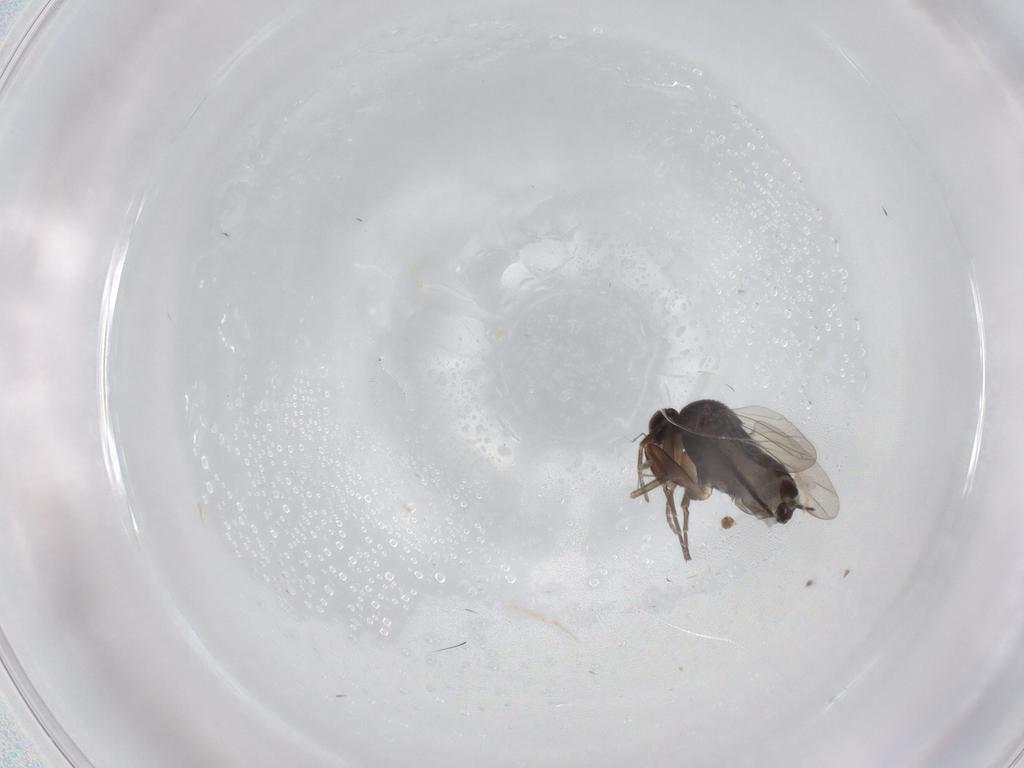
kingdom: Animalia
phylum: Arthropoda
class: Insecta
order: Diptera
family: Phoridae
